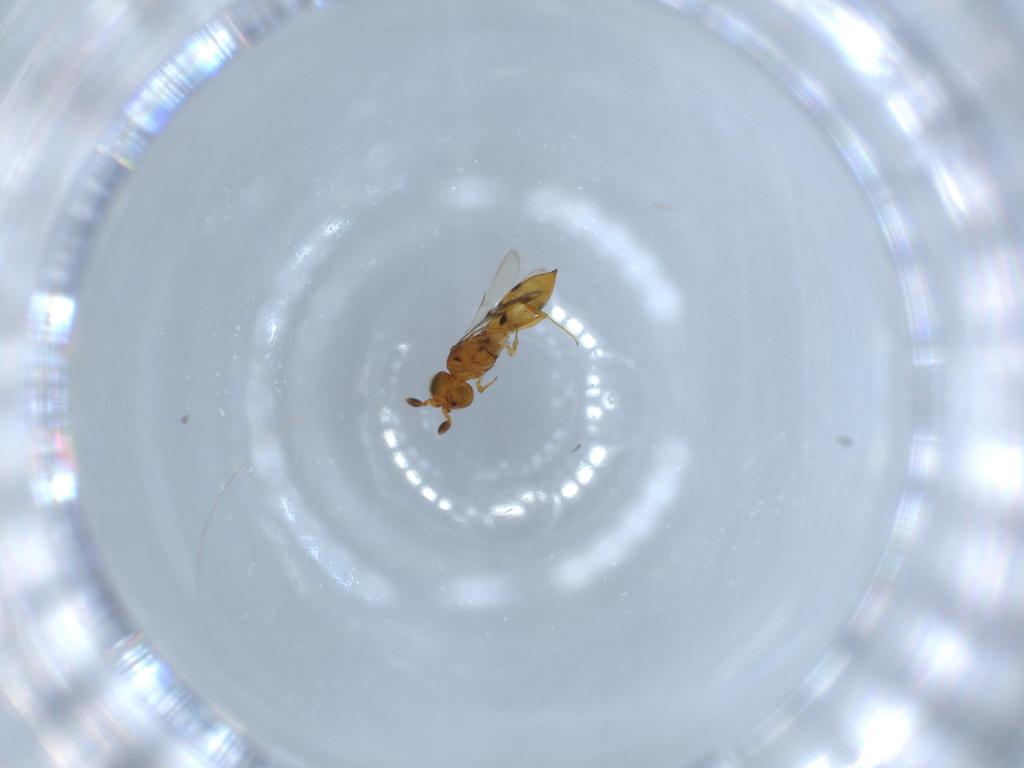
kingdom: Animalia
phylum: Arthropoda
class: Insecta
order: Hymenoptera
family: Scelionidae
